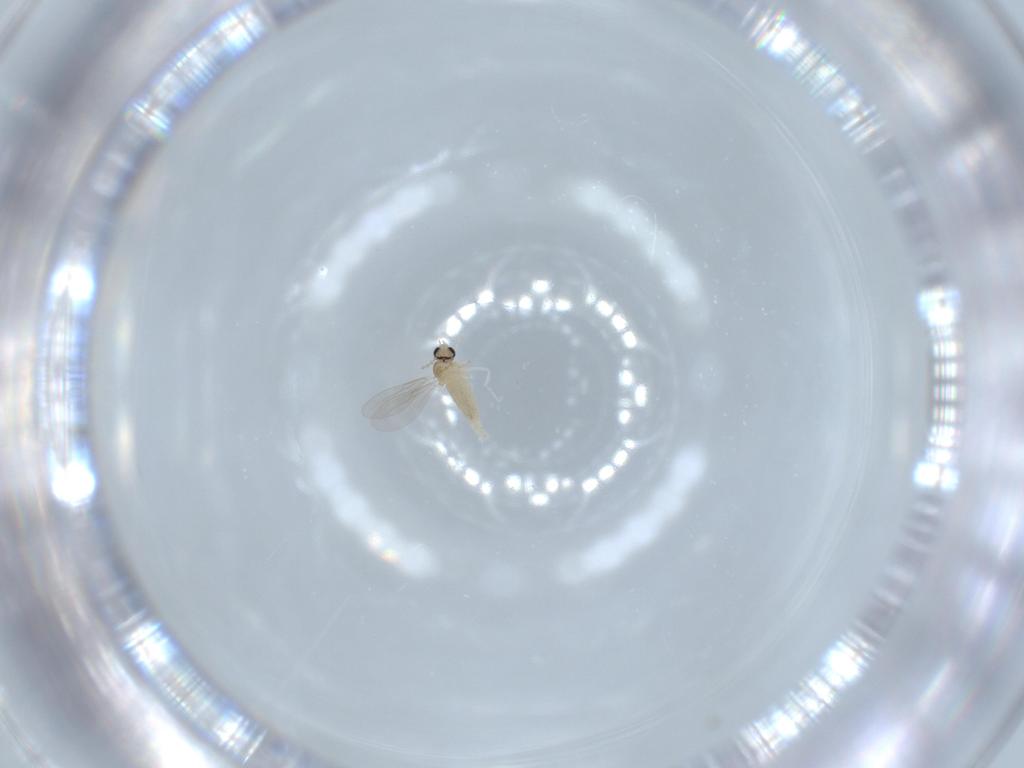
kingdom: Animalia
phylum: Arthropoda
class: Insecta
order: Diptera
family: Cecidomyiidae
